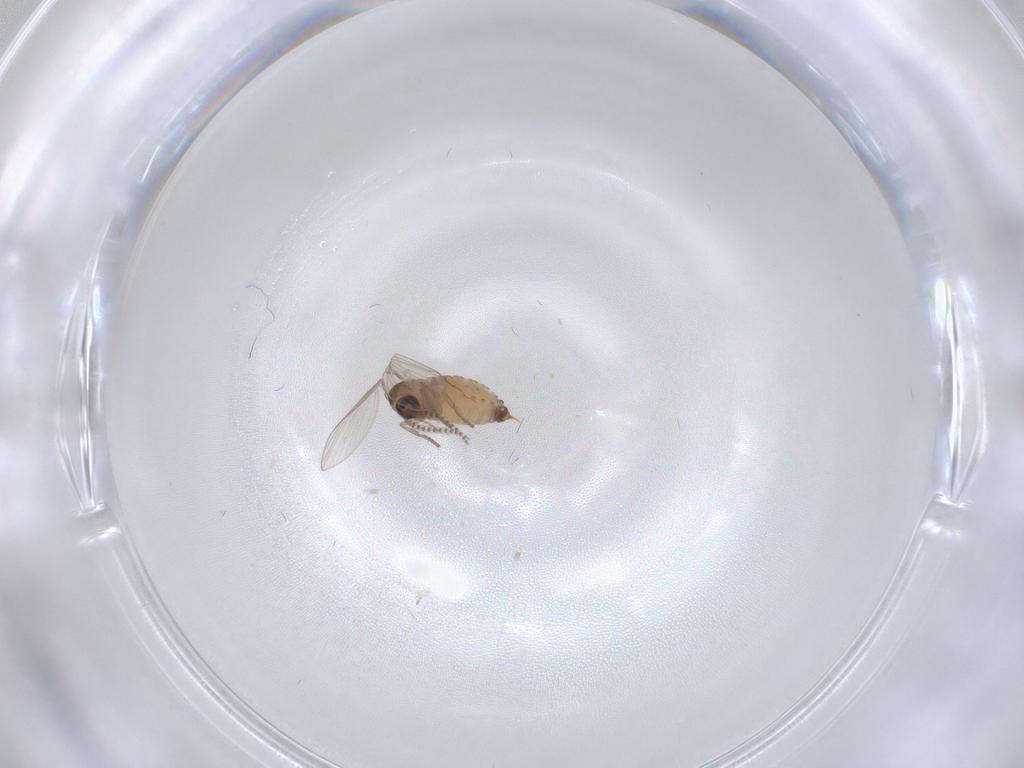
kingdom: Animalia
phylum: Arthropoda
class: Insecta
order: Diptera
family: Psychodidae
